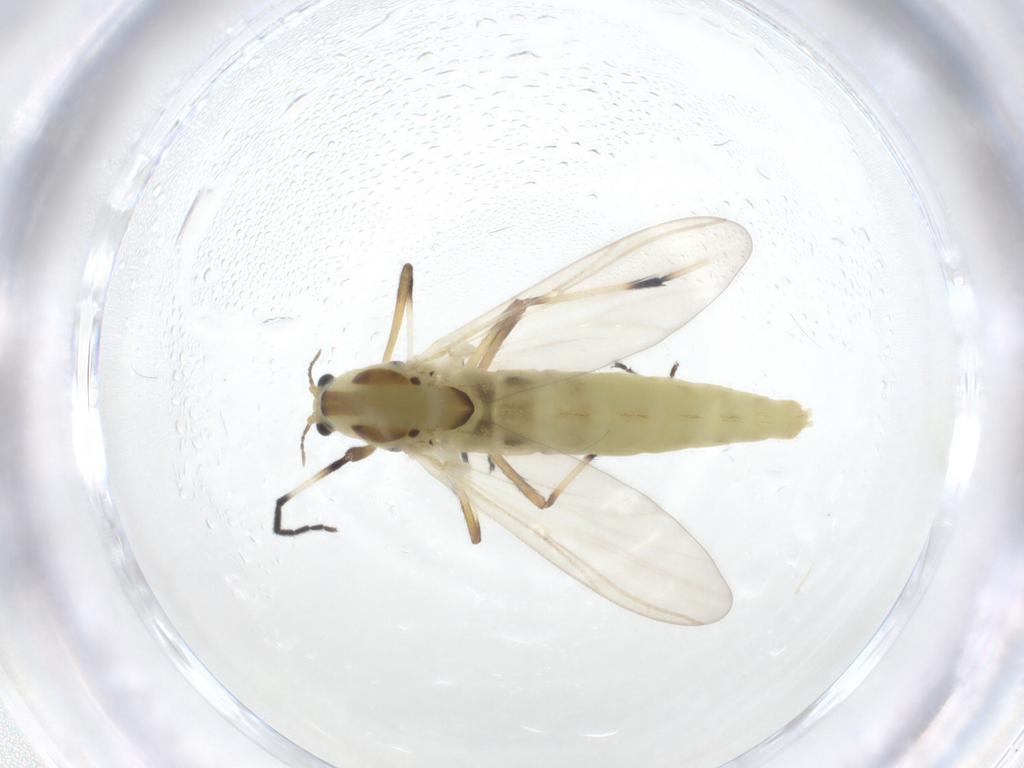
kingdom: Animalia
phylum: Arthropoda
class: Insecta
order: Diptera
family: Chironomidae
